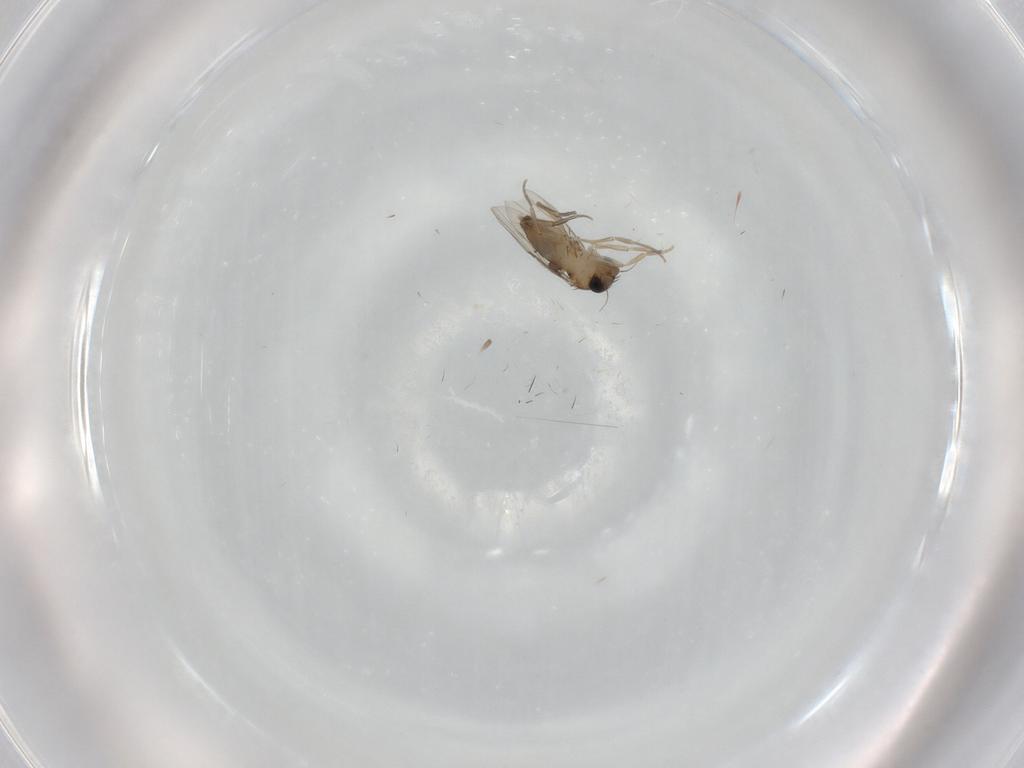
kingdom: Animalia
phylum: Arthropoda
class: Insecta
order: Diptera
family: Phoridae
